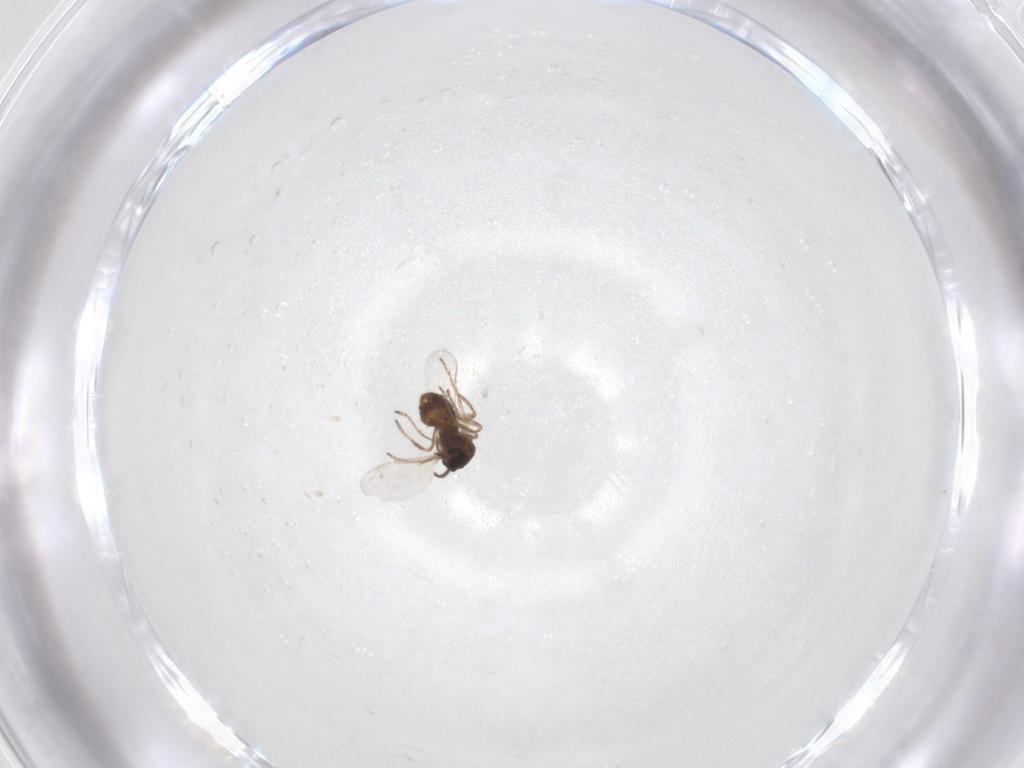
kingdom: Animalia
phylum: Arthropoda
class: Insecta
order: Diptera
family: Ceratopogonidae
